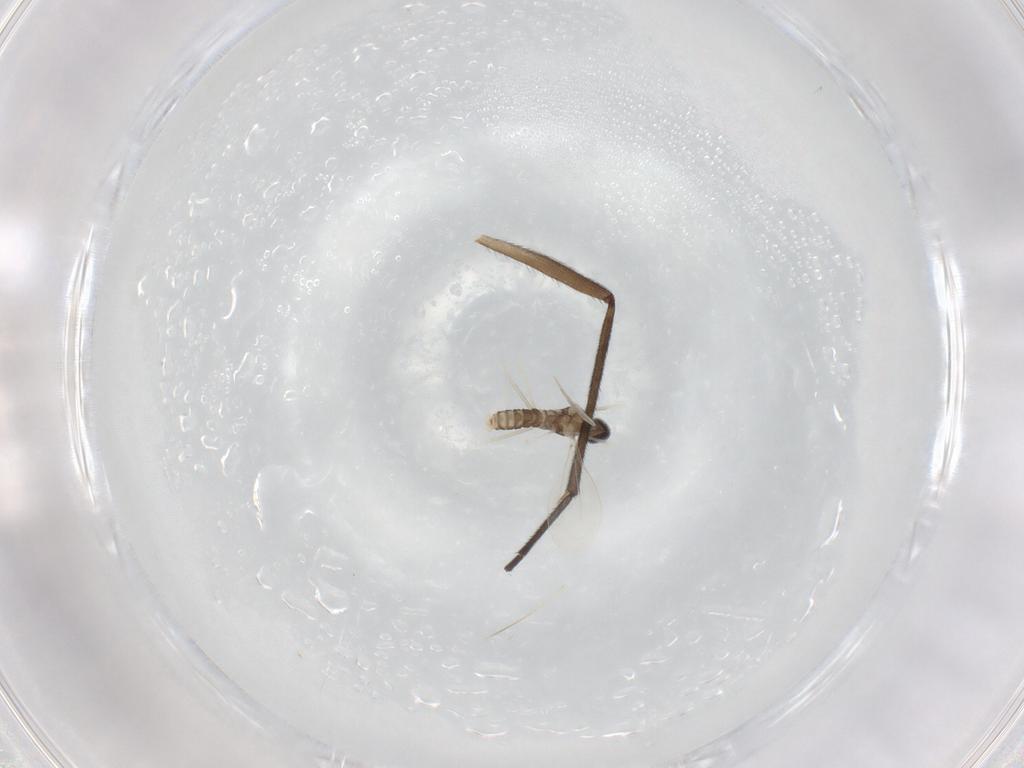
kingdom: Animalia
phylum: Arthropoda
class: Insecta
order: Diptera
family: Cecidomyiidae
